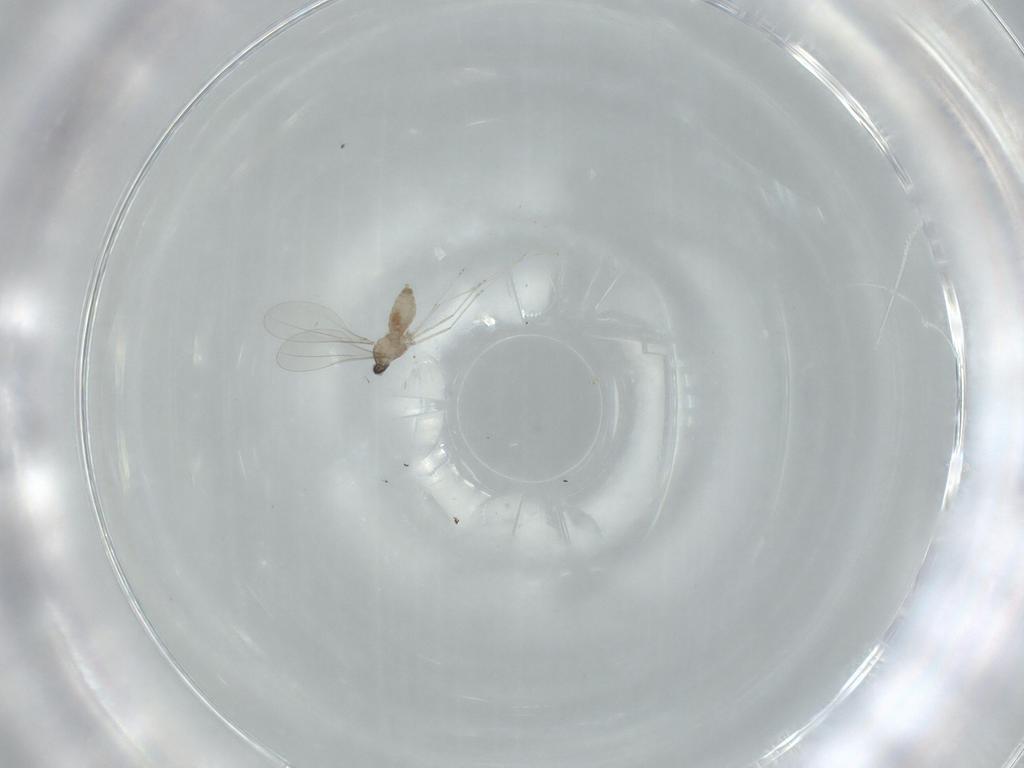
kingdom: Animalia
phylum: Arthropoda
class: Insecta
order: Diptera
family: Cecidomyiidae
